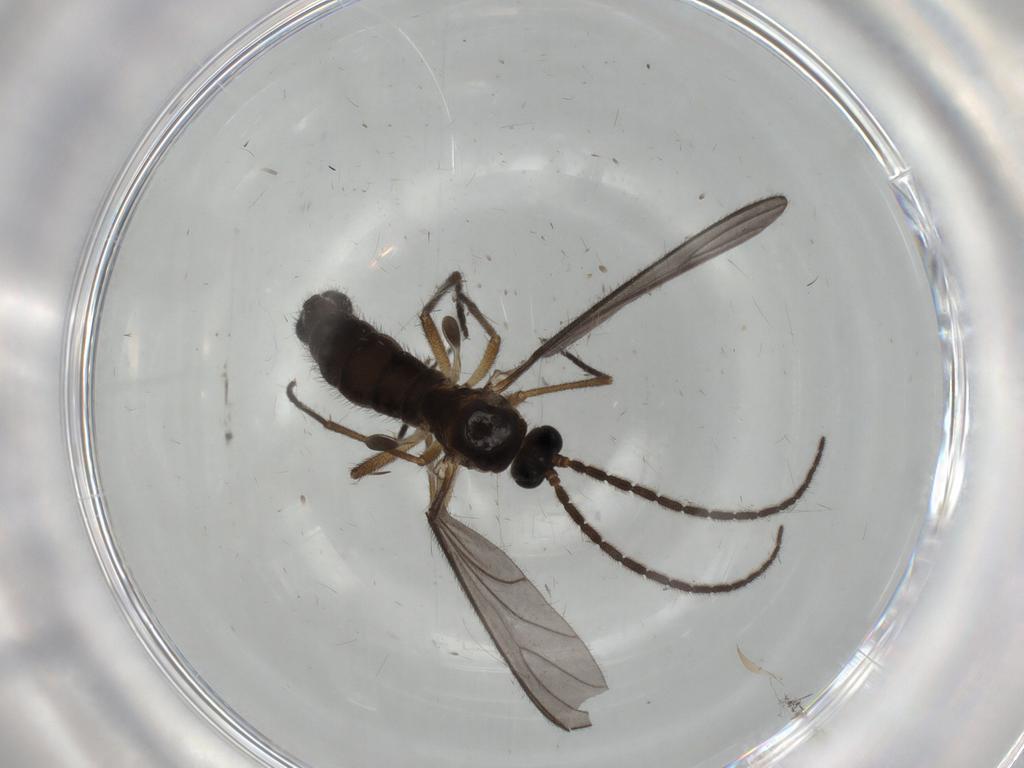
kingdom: Animalia
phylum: Arthropoda
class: Insecta
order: Diptera
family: Sciaridae
